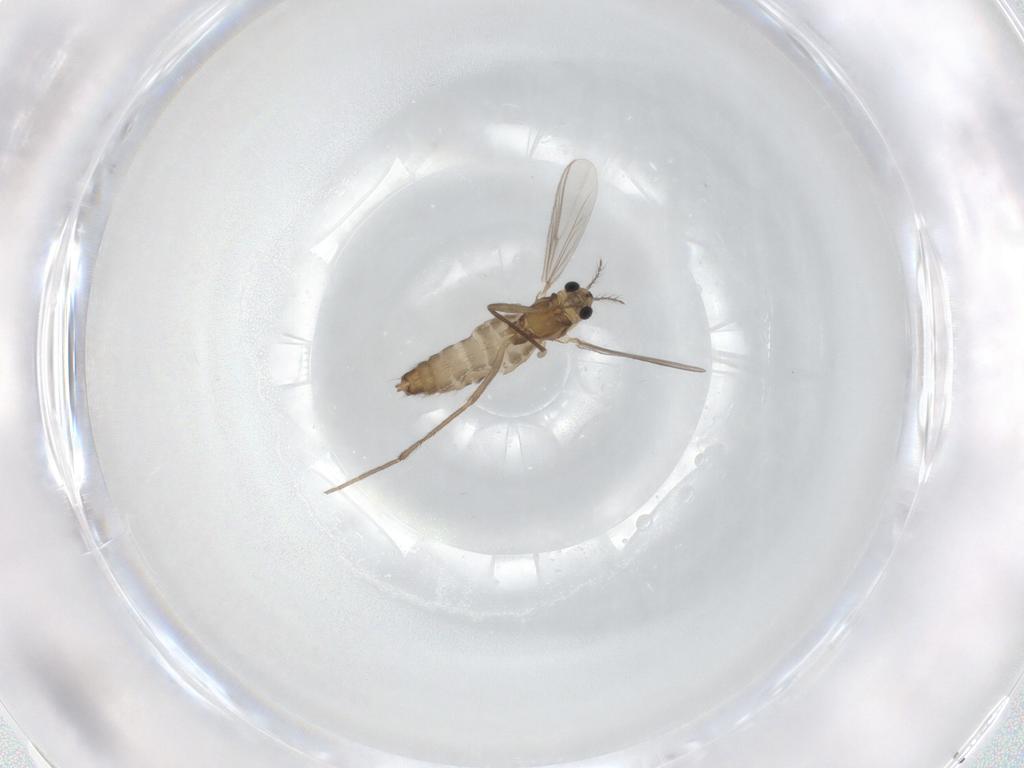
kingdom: Animalia
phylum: Arthropoda
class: Insecta
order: Diptera
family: Chironomidae
